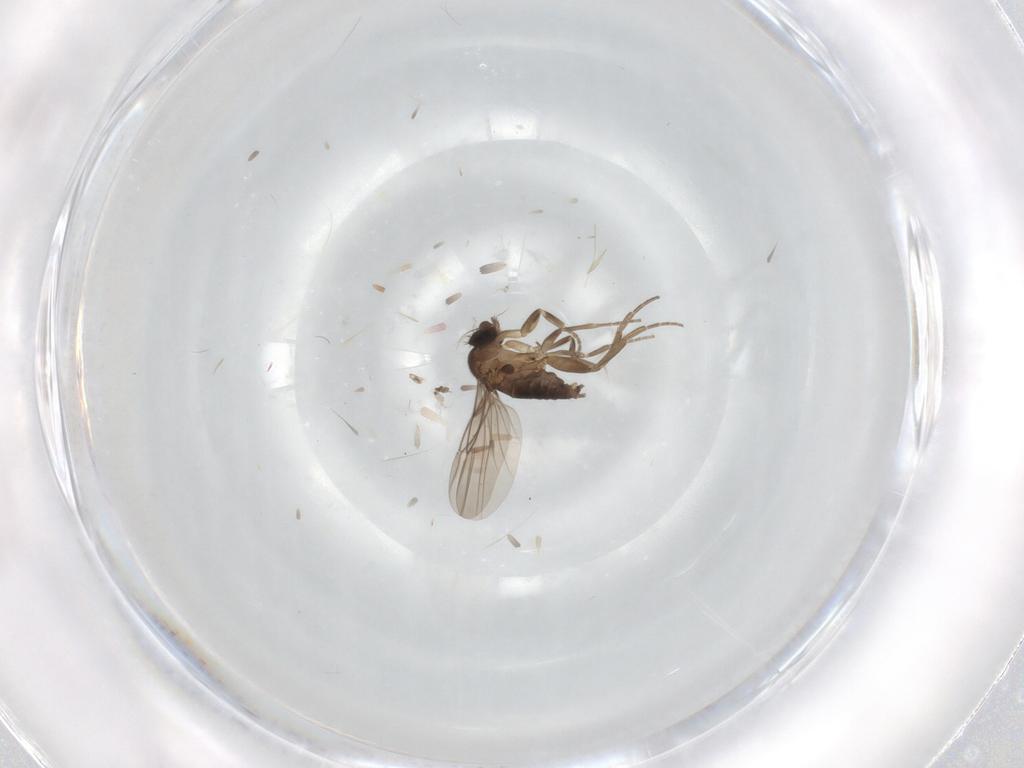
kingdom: Animalia
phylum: Arthropoda
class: Insecta
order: Diptera
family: Phoridae
